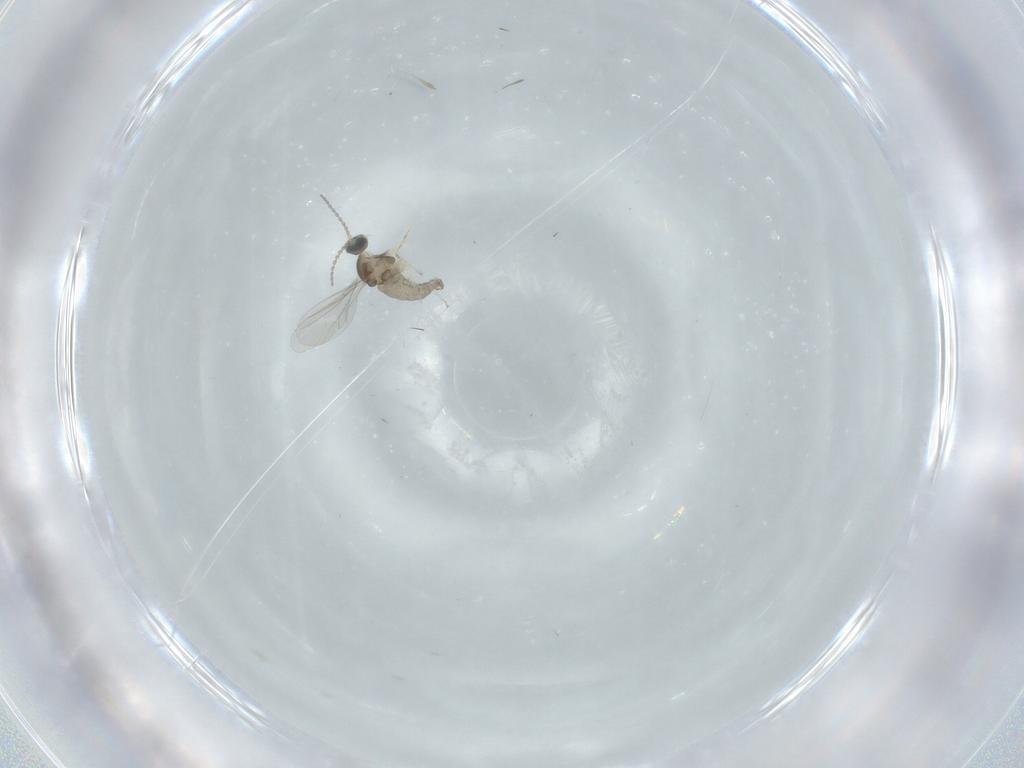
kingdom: Animalia
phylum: Arthropoda
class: Insecta
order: Diptera
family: Cecidomyiidae
